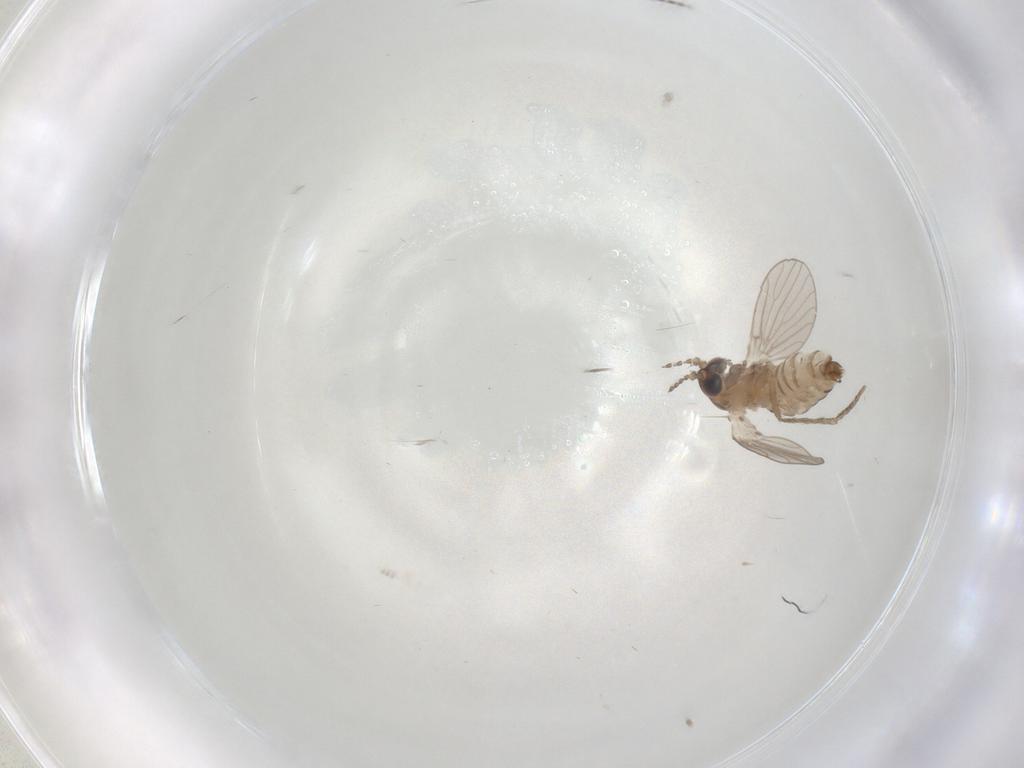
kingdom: Animalia
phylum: Arthropoda
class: Insecta
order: Diptera
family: Psychodidae
